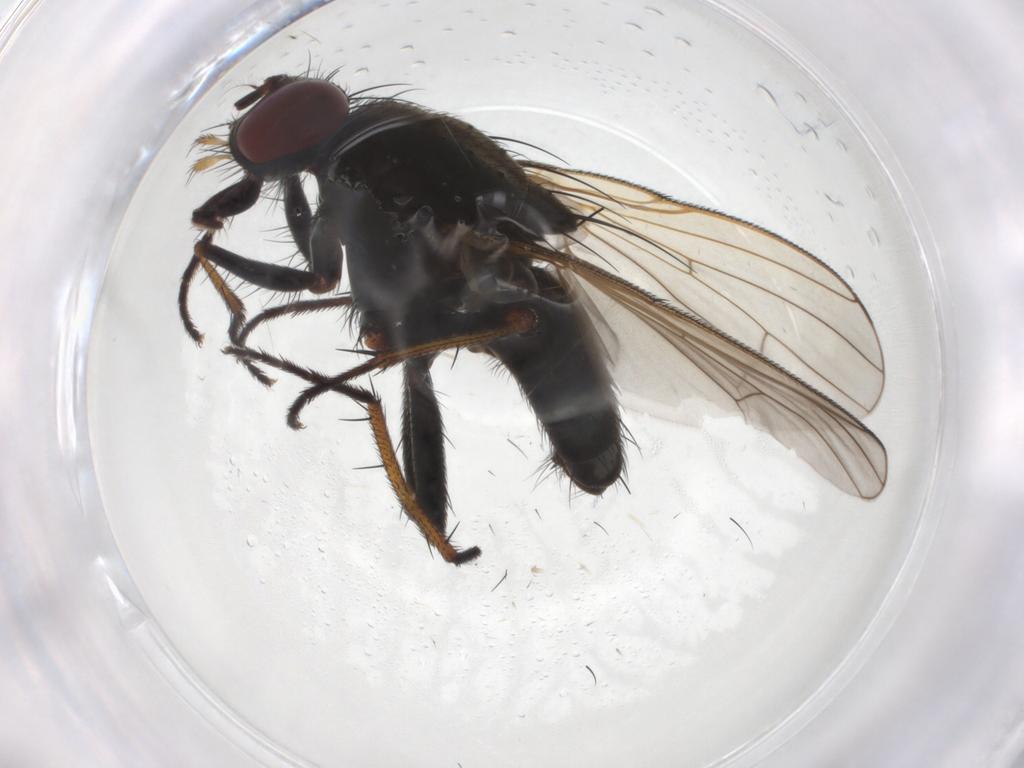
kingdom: Animalia
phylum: Arthropoda
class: Insecta
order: Diptera
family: Muscidae
